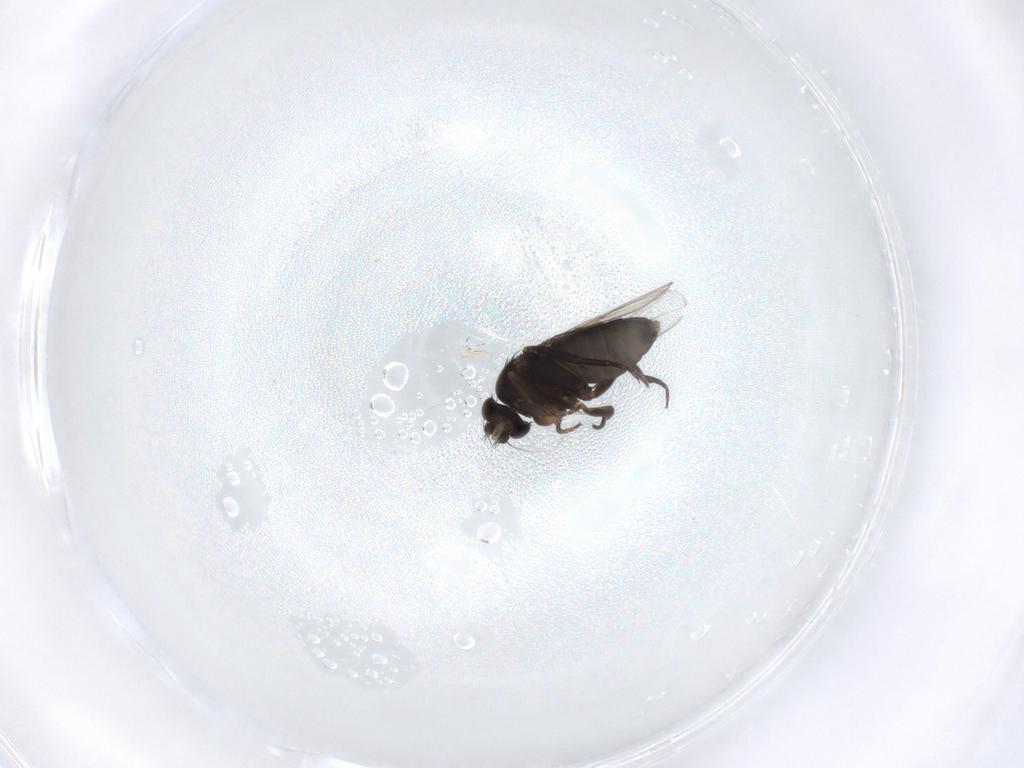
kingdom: Animalia
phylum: Arthropoda
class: Insecta
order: Diptera
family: Phoridae
